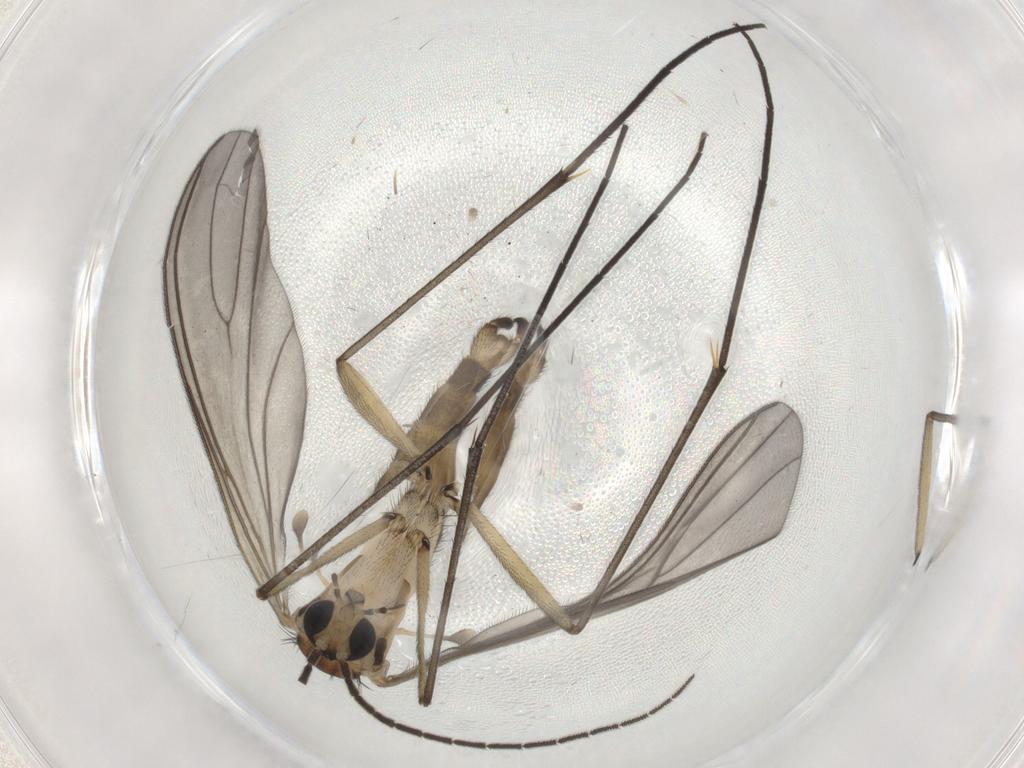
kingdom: Animalia
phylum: Arthropoda
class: Insecta
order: Diptera
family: Sciaridae
